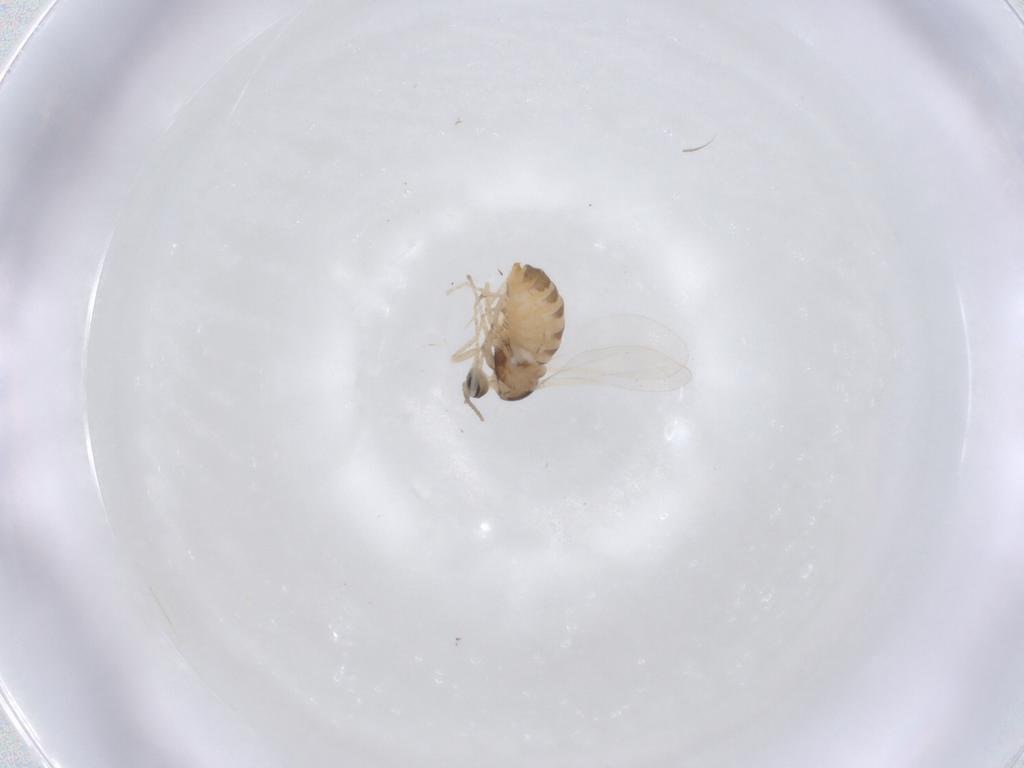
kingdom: Animalia
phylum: Arthropoda
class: Insecta
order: Diptera
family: Cecidomyiidae
